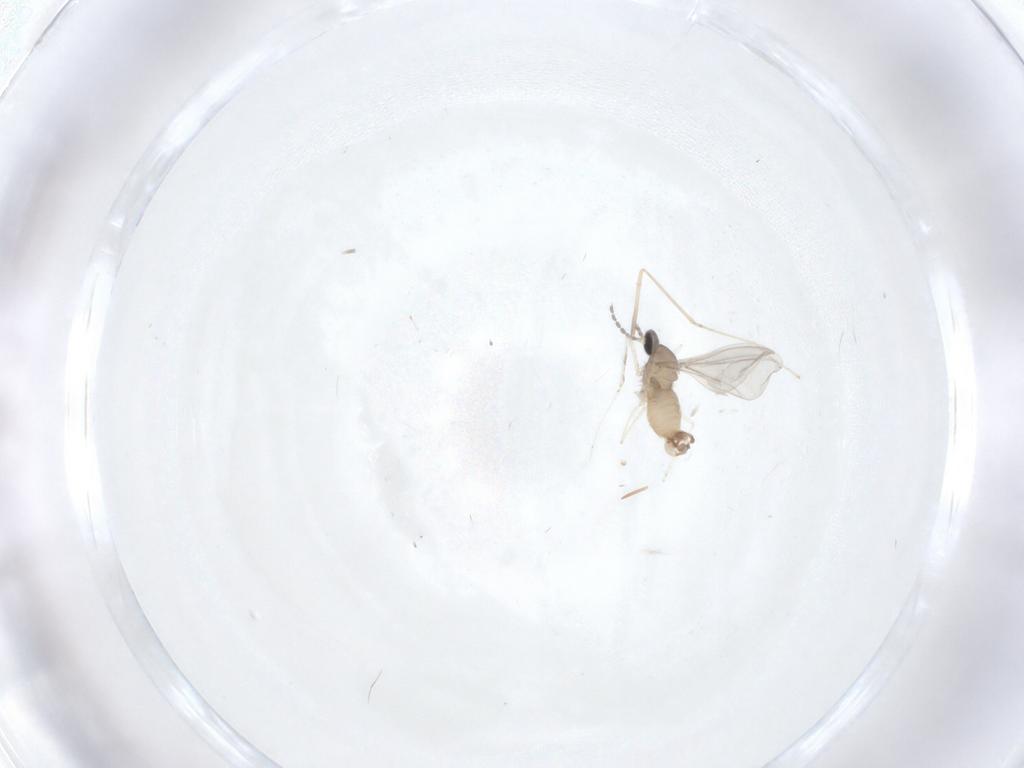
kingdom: Animalia
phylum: Arthropoda
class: Insecta
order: Diptera
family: Cecidomyiidae
